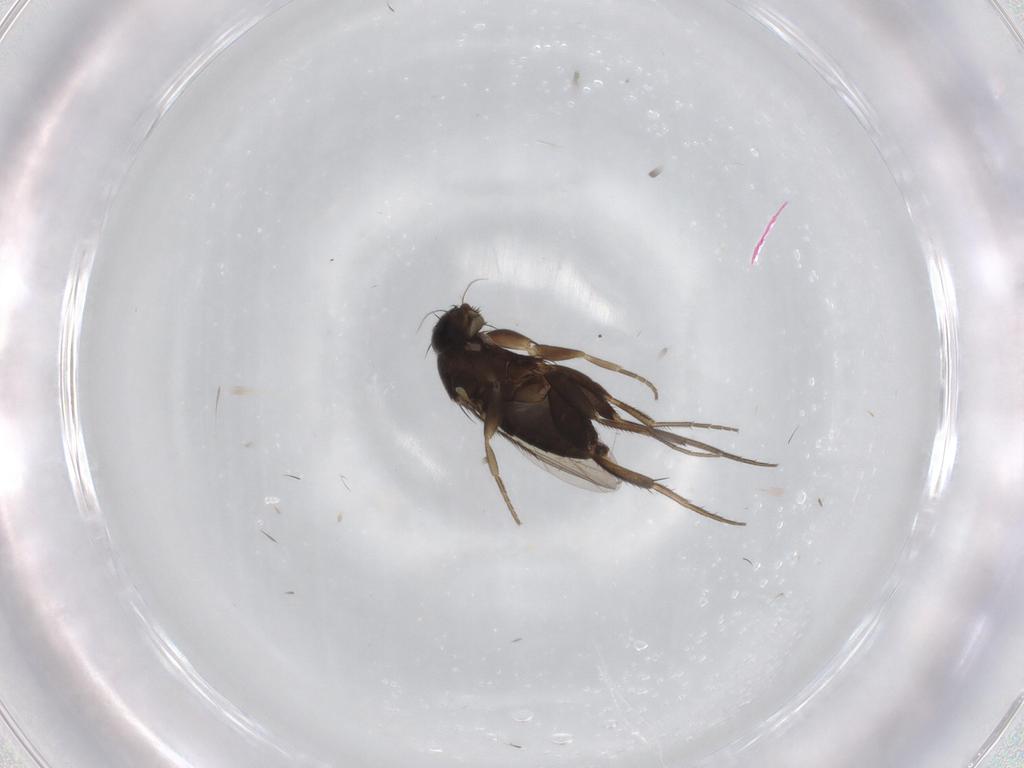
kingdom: Animalia
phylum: Arthropoda
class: Insecta
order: Diptera
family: Phoridae
